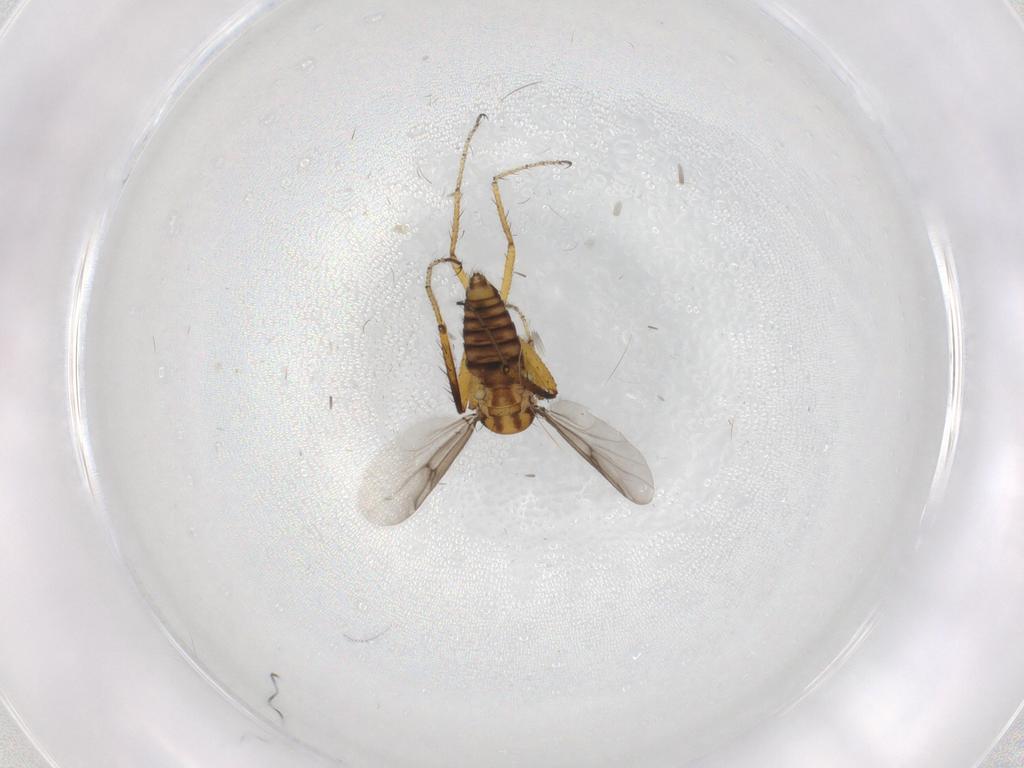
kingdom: Animalia
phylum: Arthropoda
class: Insecta
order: Diptera
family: Ceratopogonidae
